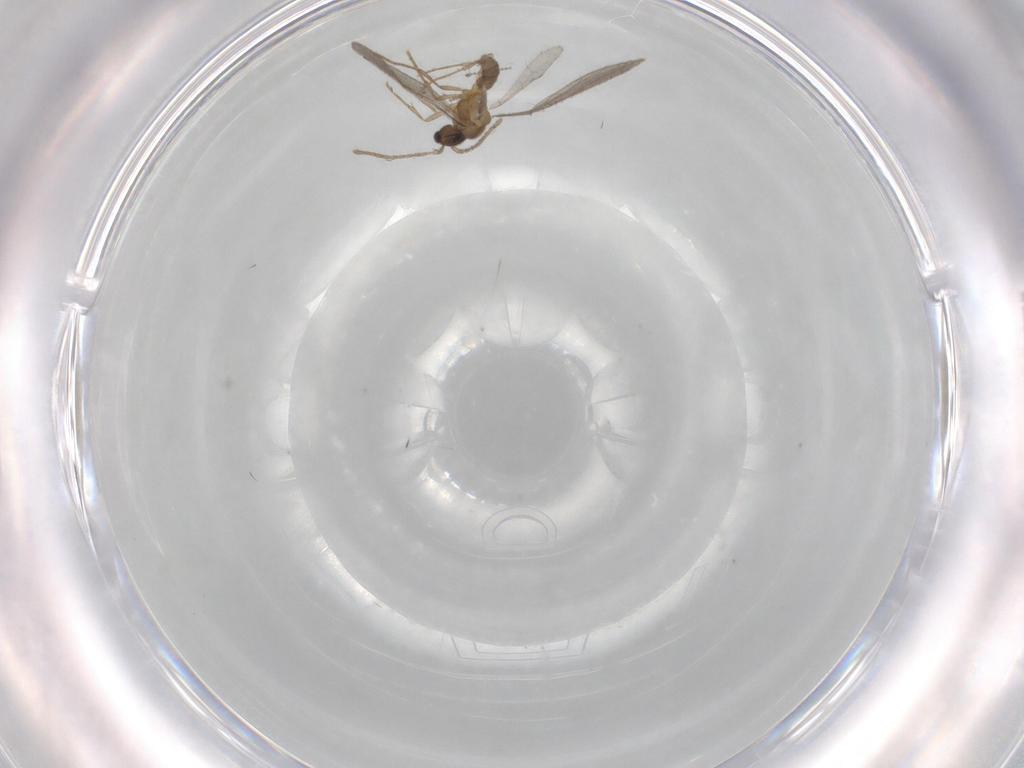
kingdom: Animalia
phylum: Arthropoda
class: Insecta
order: Hymenoptera
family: Formicidae
